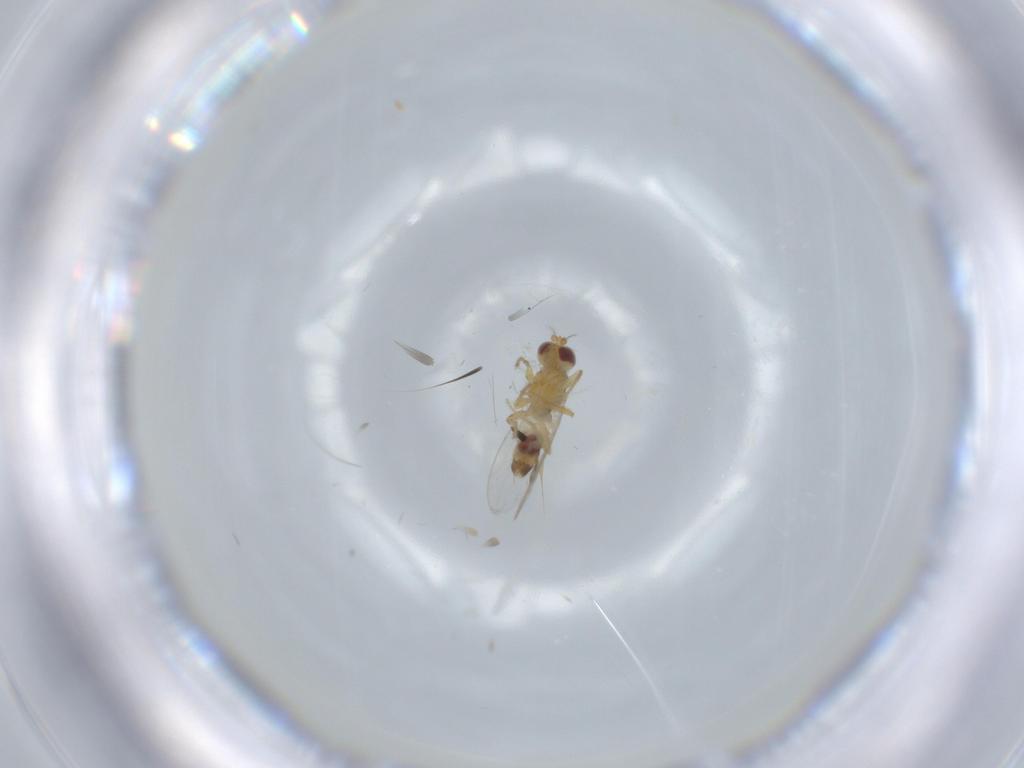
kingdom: Animalia
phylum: Arthropoda
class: Insecta
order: Diptera
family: Periscelididae
